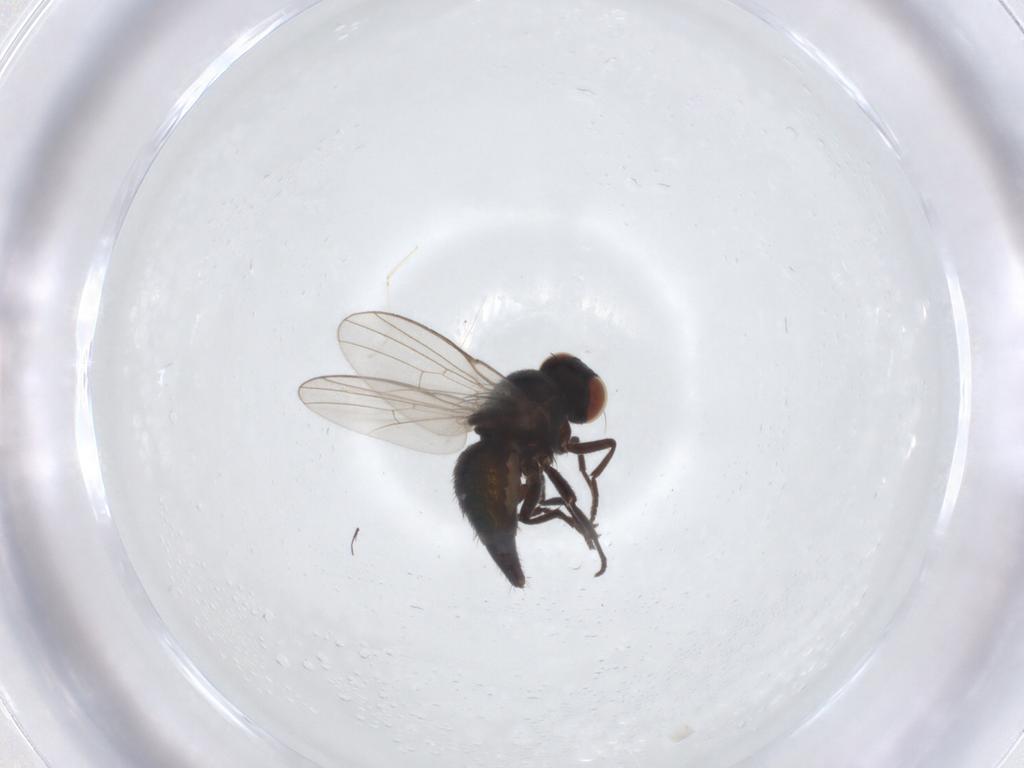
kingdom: Animalia
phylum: Arthropoda
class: Insecta
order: Diptera
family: Agromyzidae
